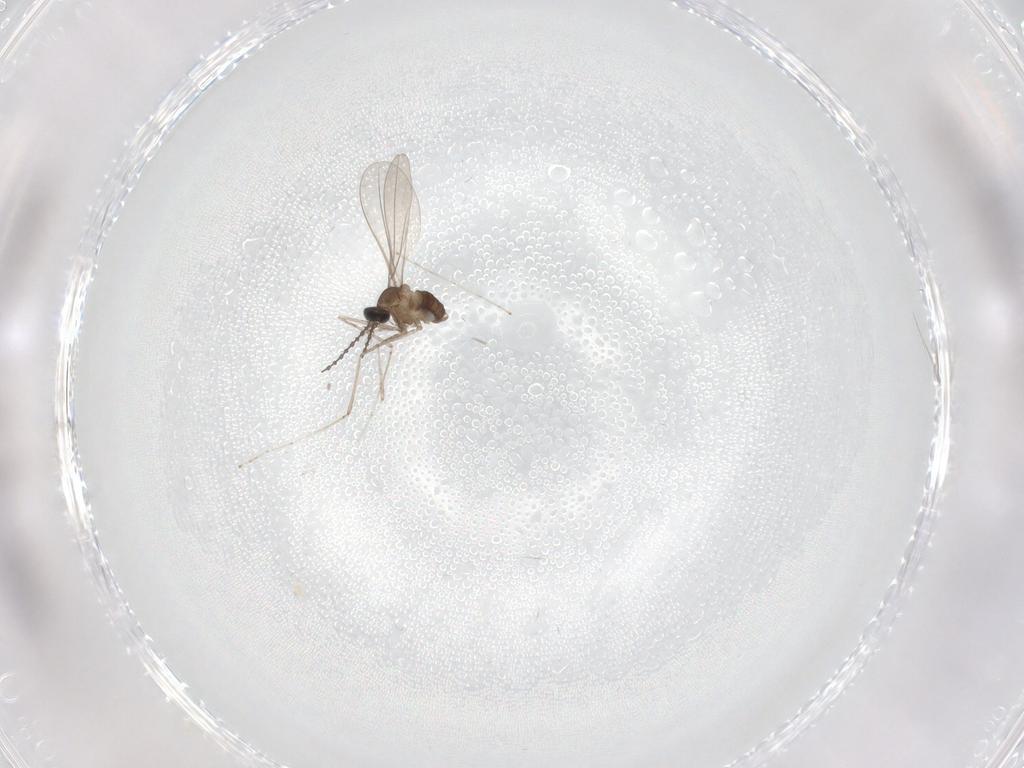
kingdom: Animalia
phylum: Arthropoda
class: Insecta
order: Diptera
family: Cecidomyiidae
